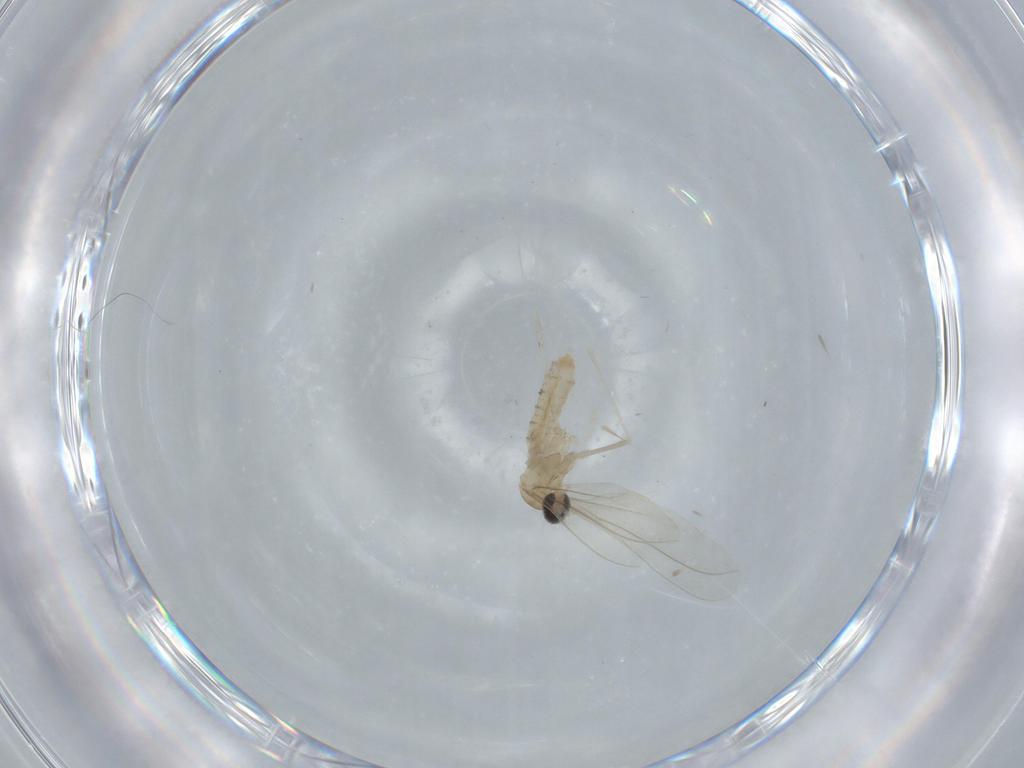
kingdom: Animalia
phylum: Arthropoda
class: Insecta
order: Diptera
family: Cecidomyiidae
